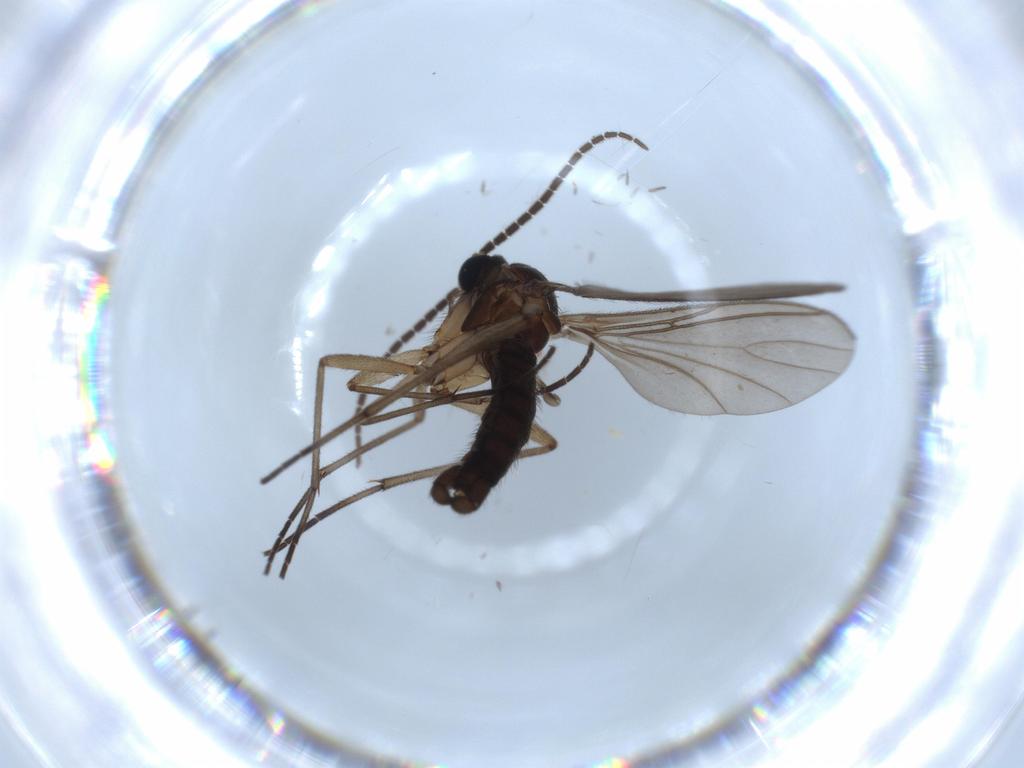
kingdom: Animalia
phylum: Arthropoda
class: Insecta
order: Diptera
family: Sciaridae
